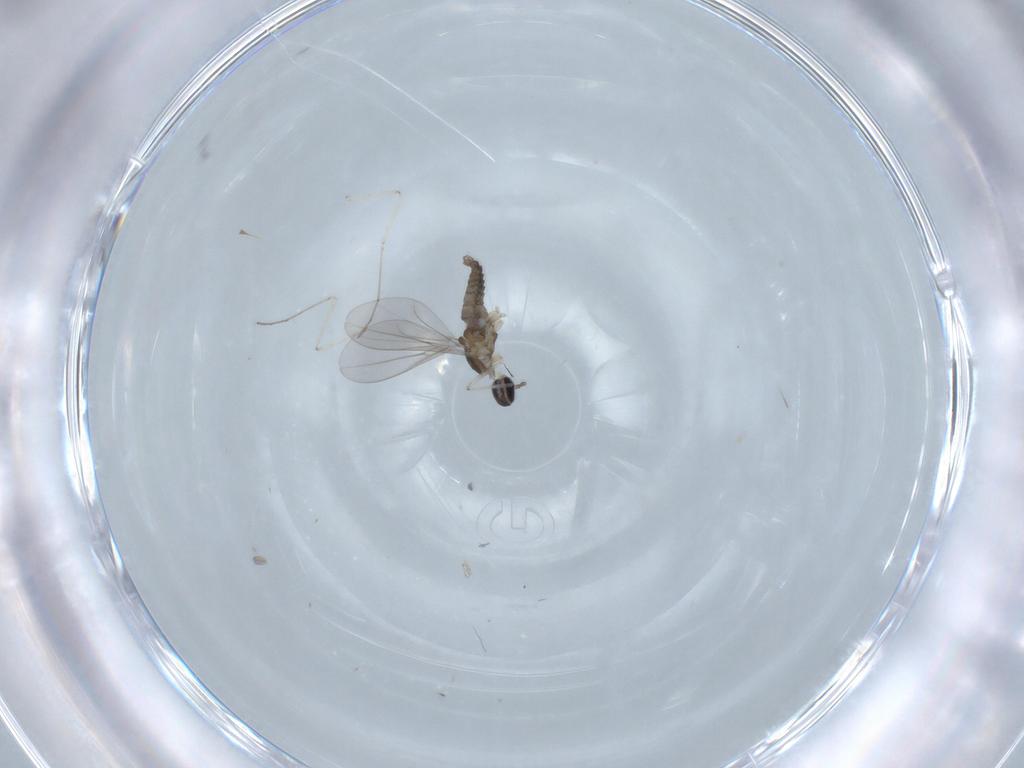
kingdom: Animalia
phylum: Arthropoda
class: Insecta
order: Diptera
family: Cecidomyiidae
